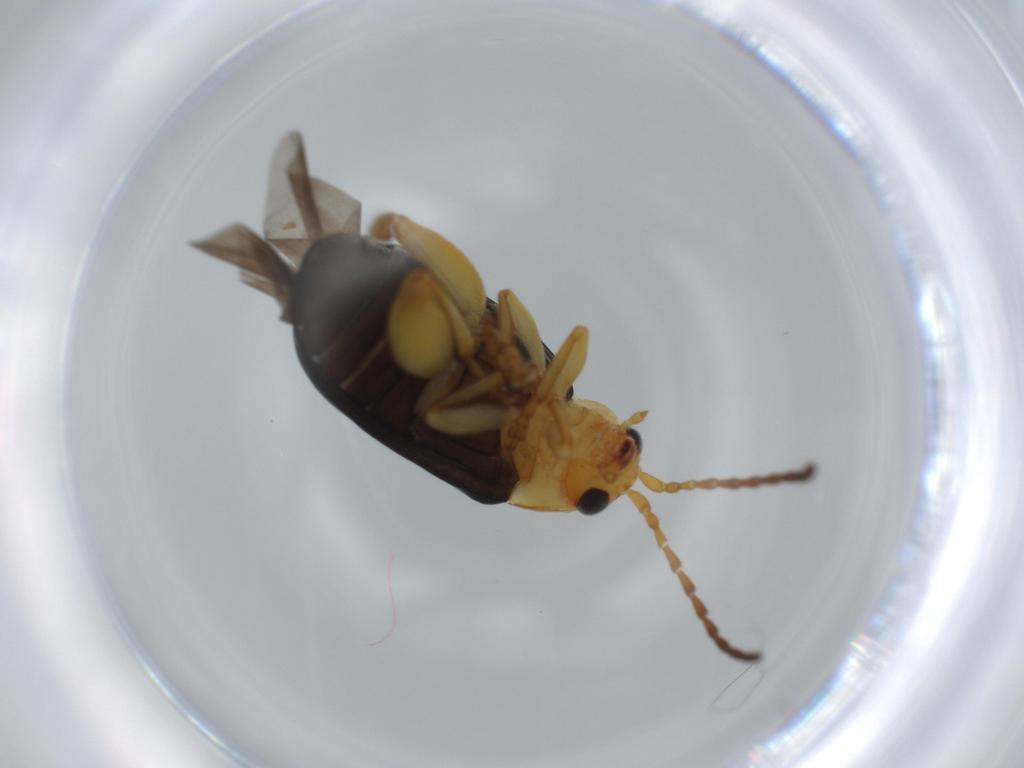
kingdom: Animalia
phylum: Arthropoda
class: Insecta
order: Coleoptera
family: Chrysomelidae
